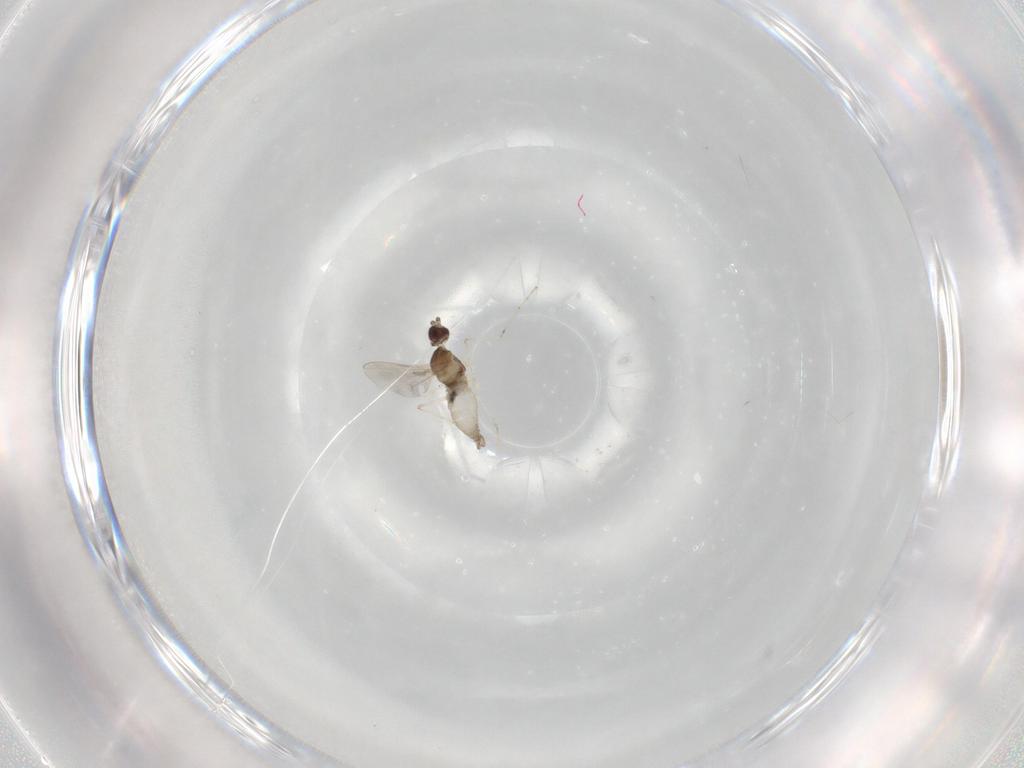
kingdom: Animalia
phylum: Arthropoda
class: Insecta
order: Diptera
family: Cecidomyiidae
